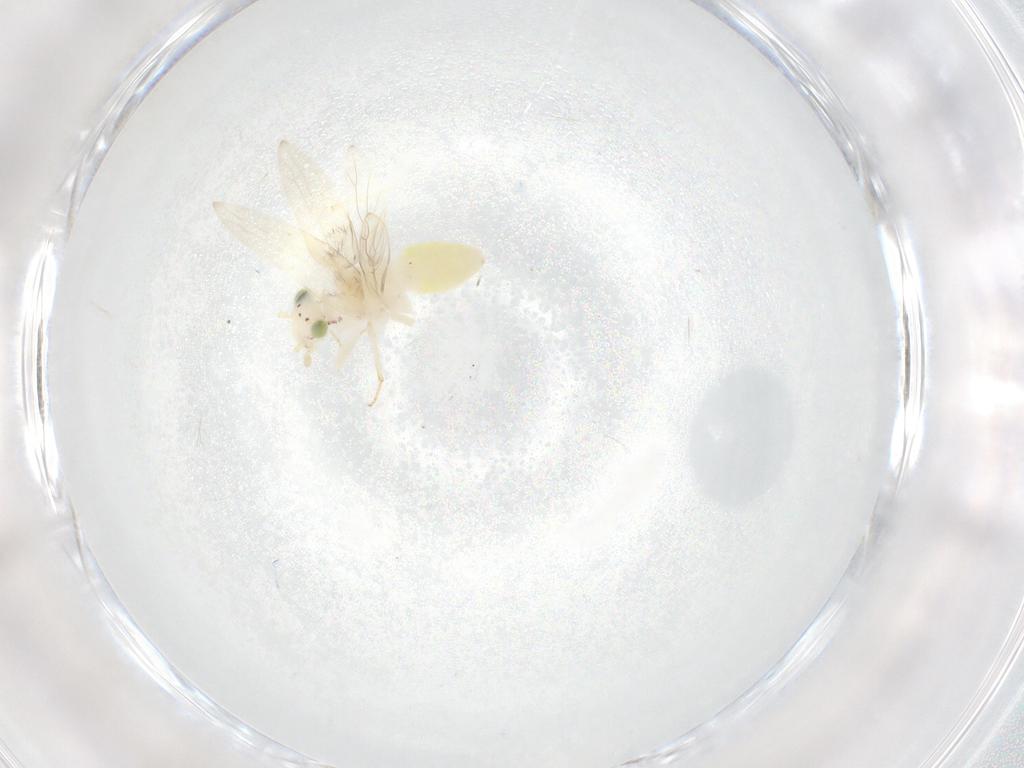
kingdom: Animalia
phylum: Arthropoda
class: Insecta
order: Psocodea
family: Lepidopsocidae
